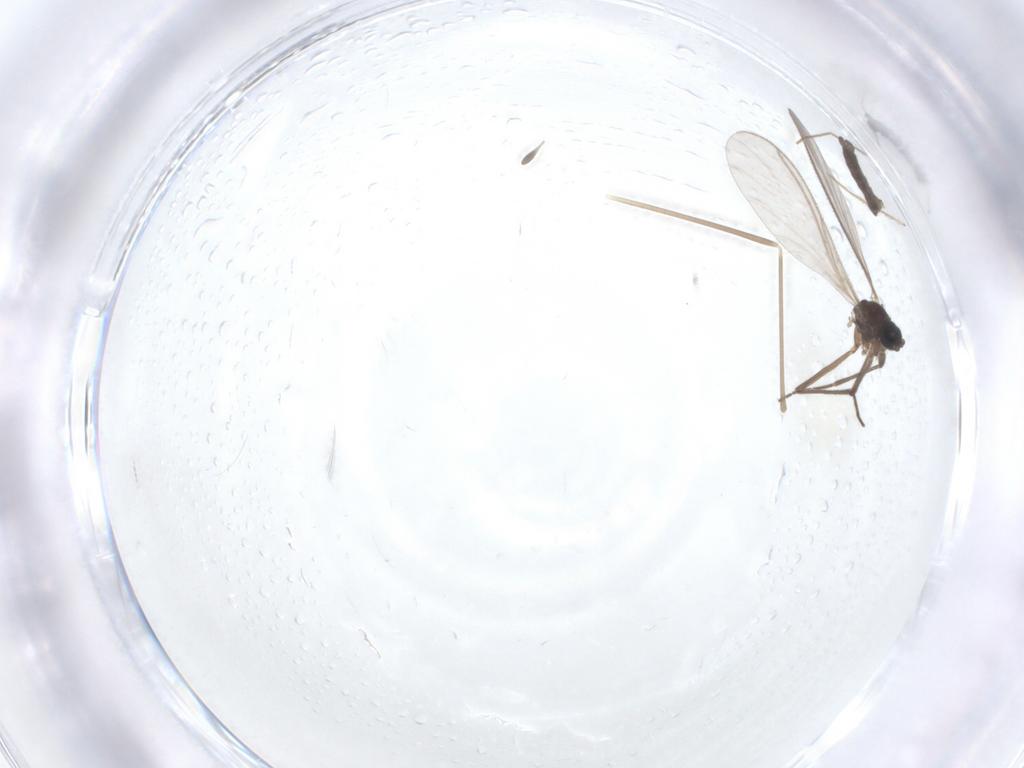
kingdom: Animalia
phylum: Arthropoda
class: Insecta
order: Diptera
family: Sciaridae
